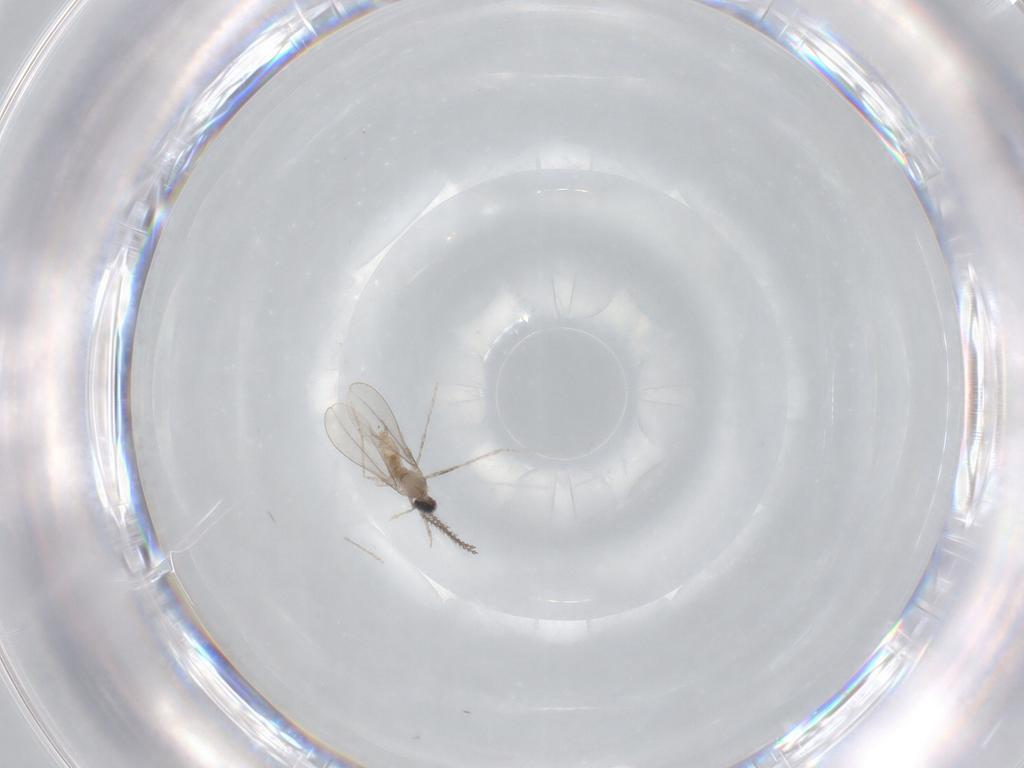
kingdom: Animalia
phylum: Arthropoda
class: Insecta
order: Diptera
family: Cecidomyiidae
